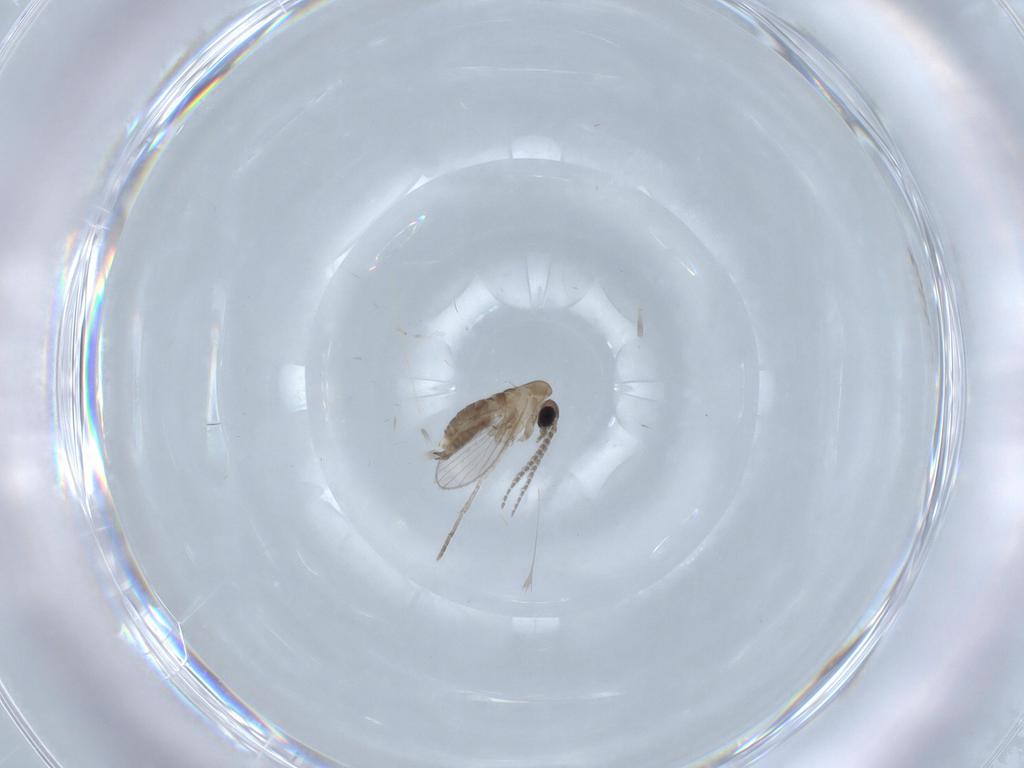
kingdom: Animalia
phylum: Arthropoda
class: Insecta
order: Diptera
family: Psychodidae
